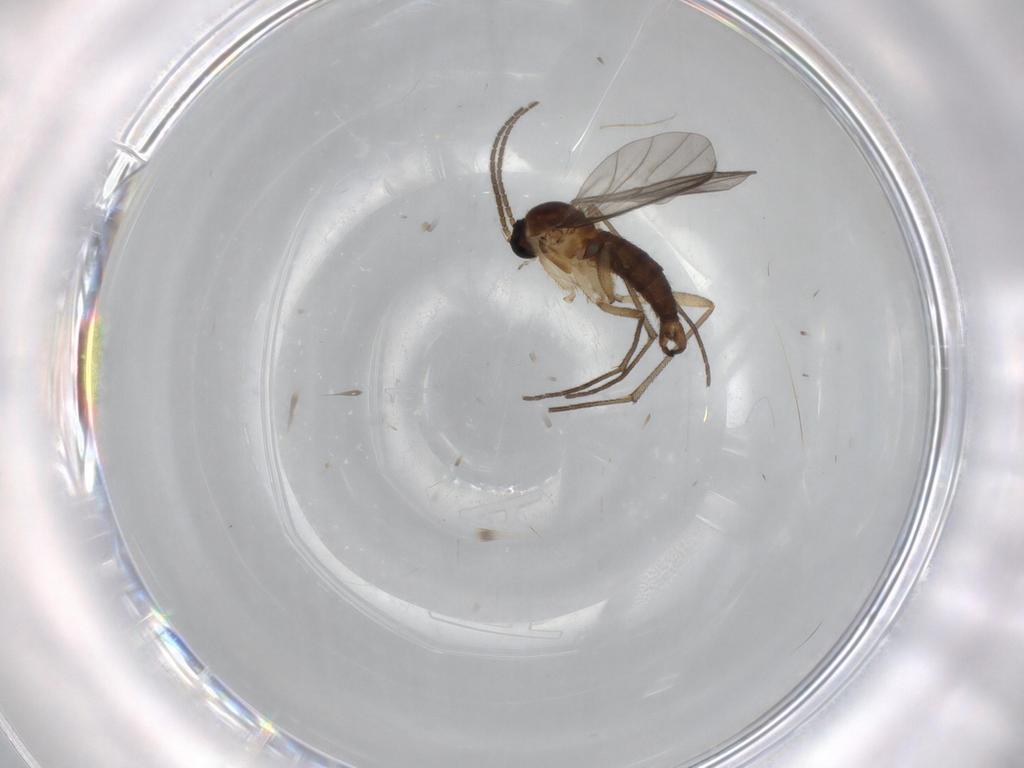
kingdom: Animalia
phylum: Arthropoda
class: Insecta
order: Diptera
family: Sciaridae
